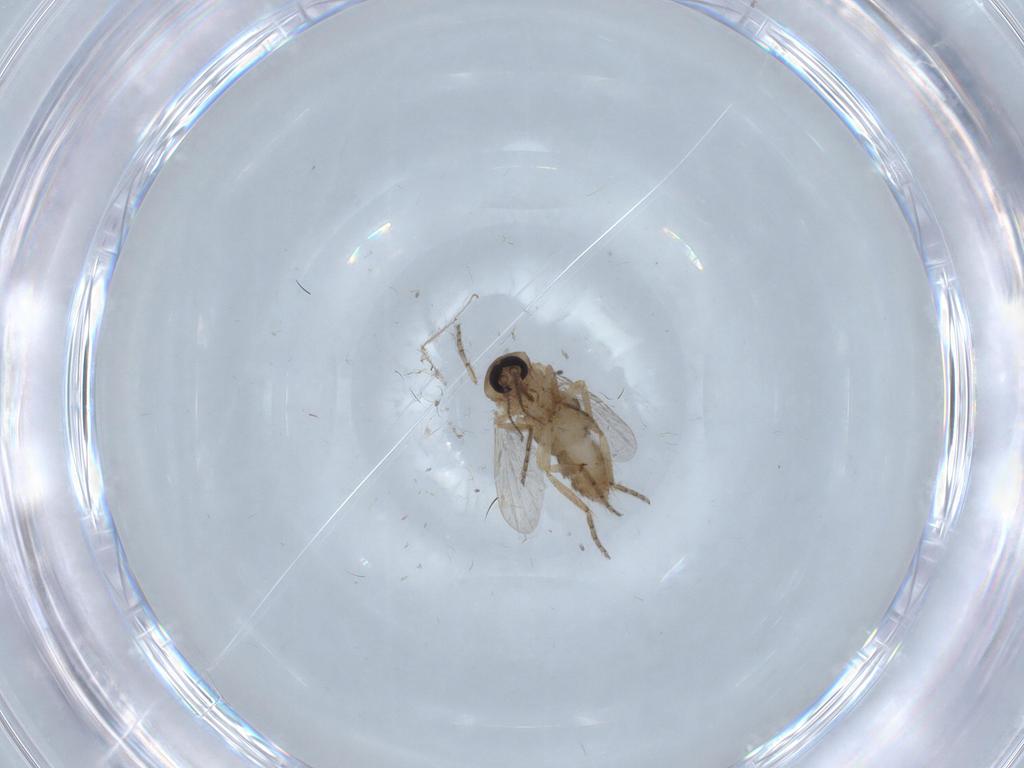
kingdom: Animalia
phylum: Arthropoda
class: Insecta
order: Diptera
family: Ceratopogonidae
